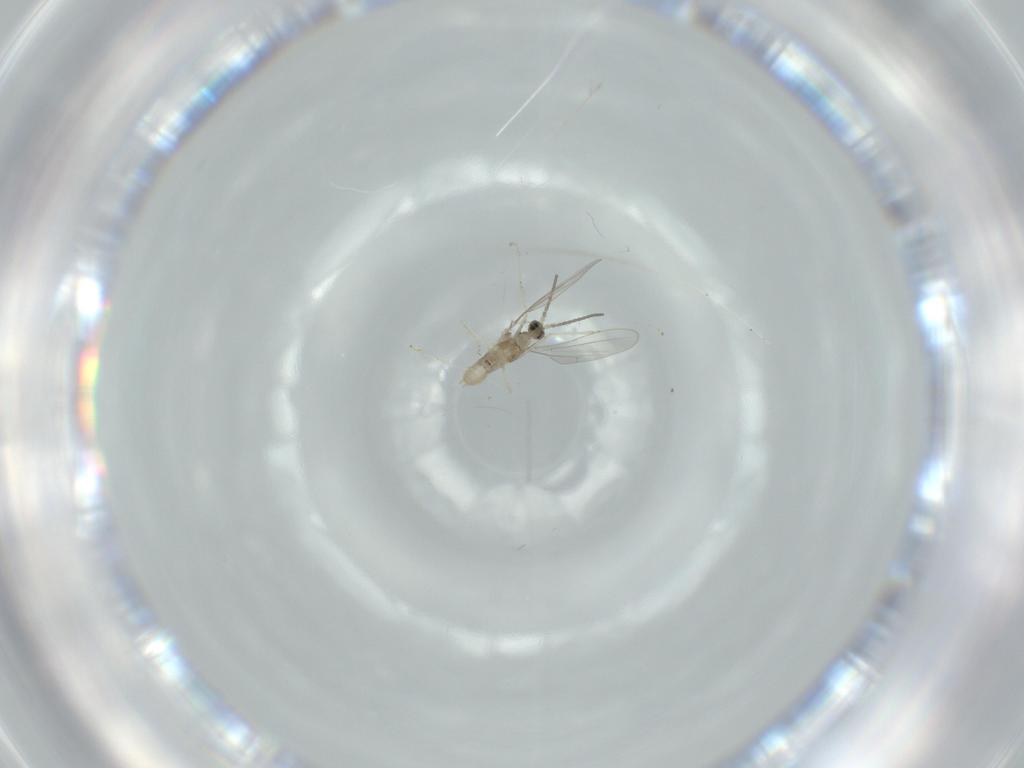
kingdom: Animalia
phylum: Arthropoda
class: Insecta
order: Diptera
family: Cecidomyiidae
